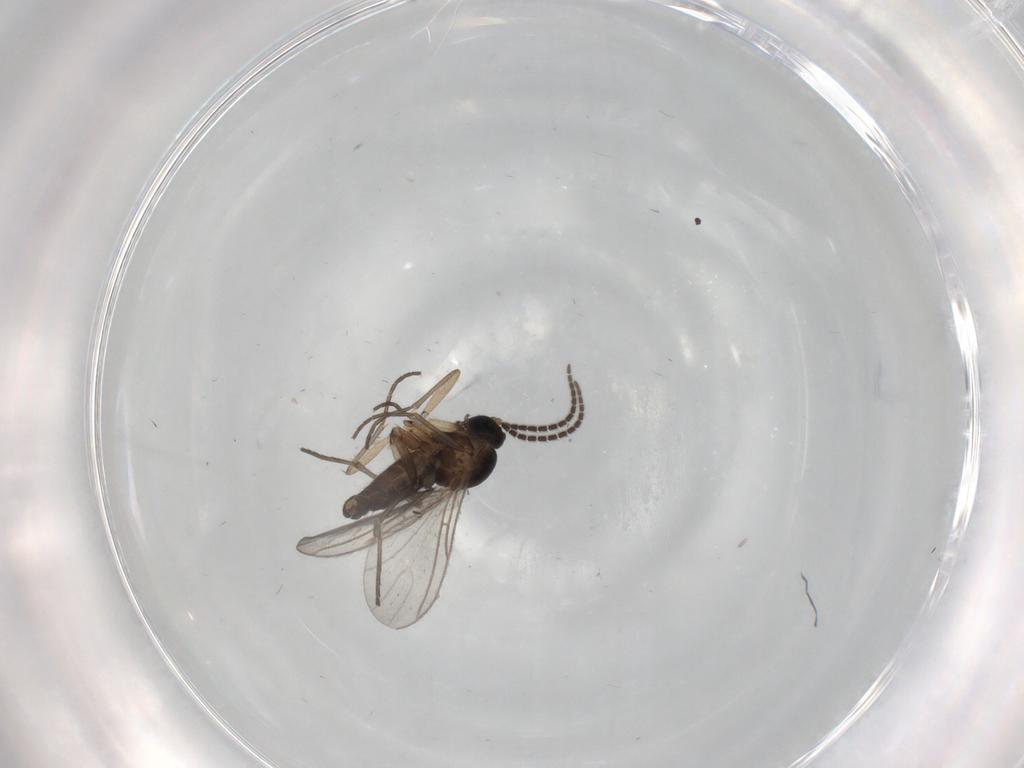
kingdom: Animalia
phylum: Arthropoda
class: Insecta
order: Diptera
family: Sciaridae
